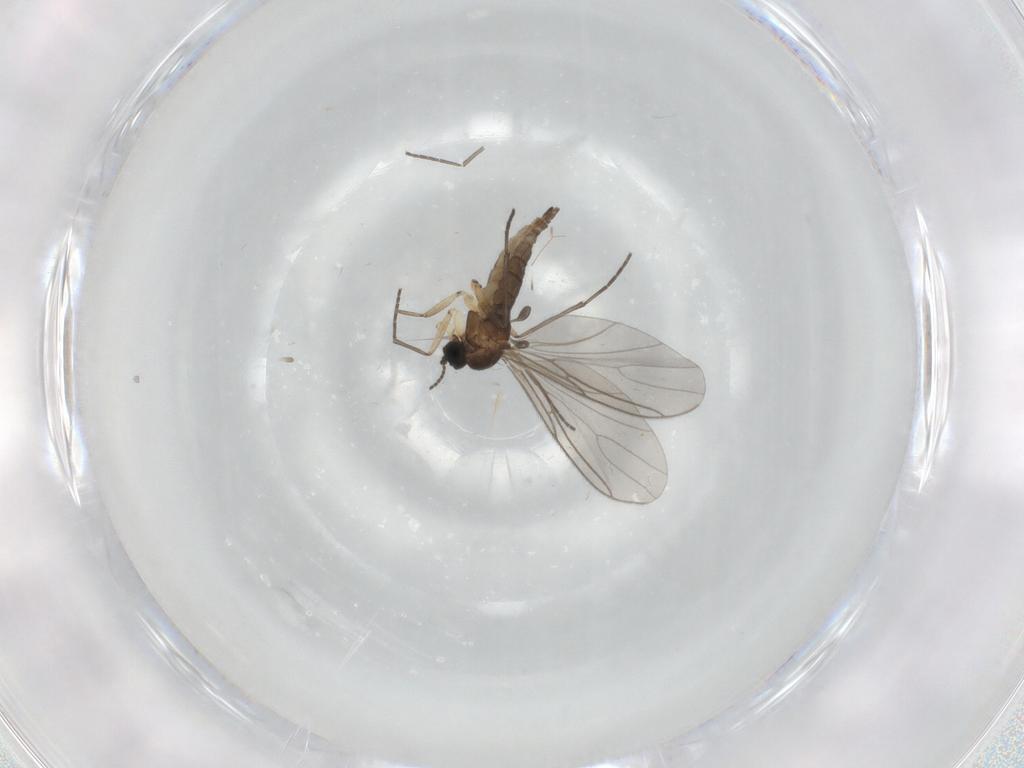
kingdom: Animalia
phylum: Arthropoda
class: Insecta
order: Diptera
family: Sciaridae
